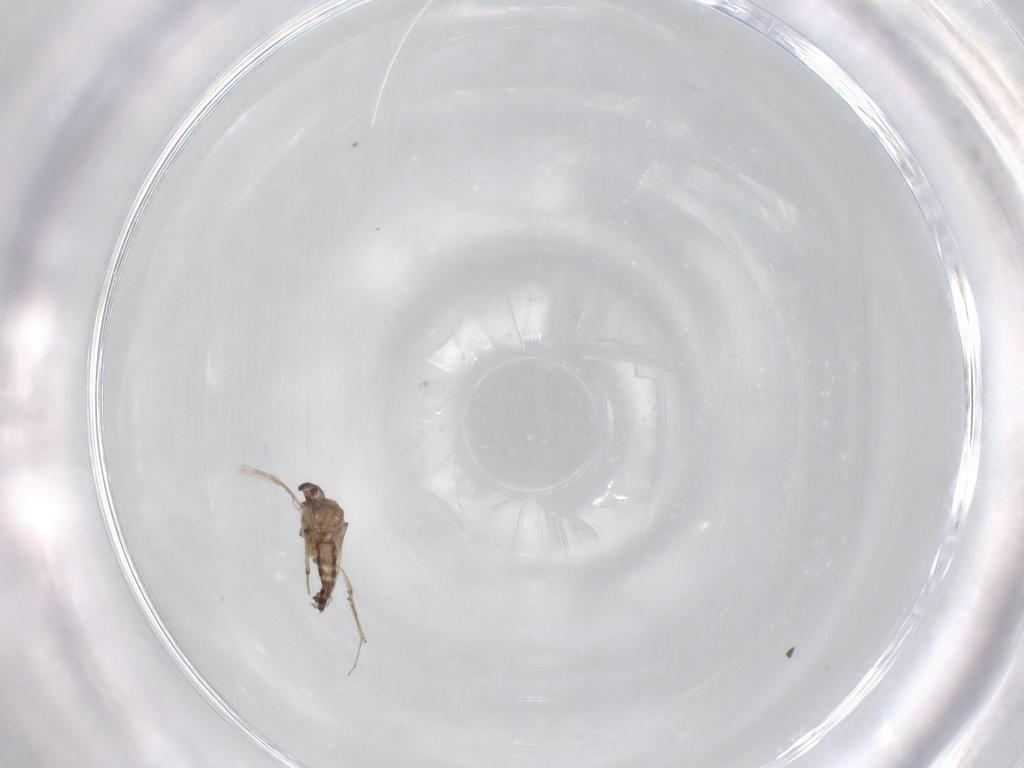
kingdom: Animalia
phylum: Arthropoda
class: Insecta
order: Diptera
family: Ceratopogonidae
